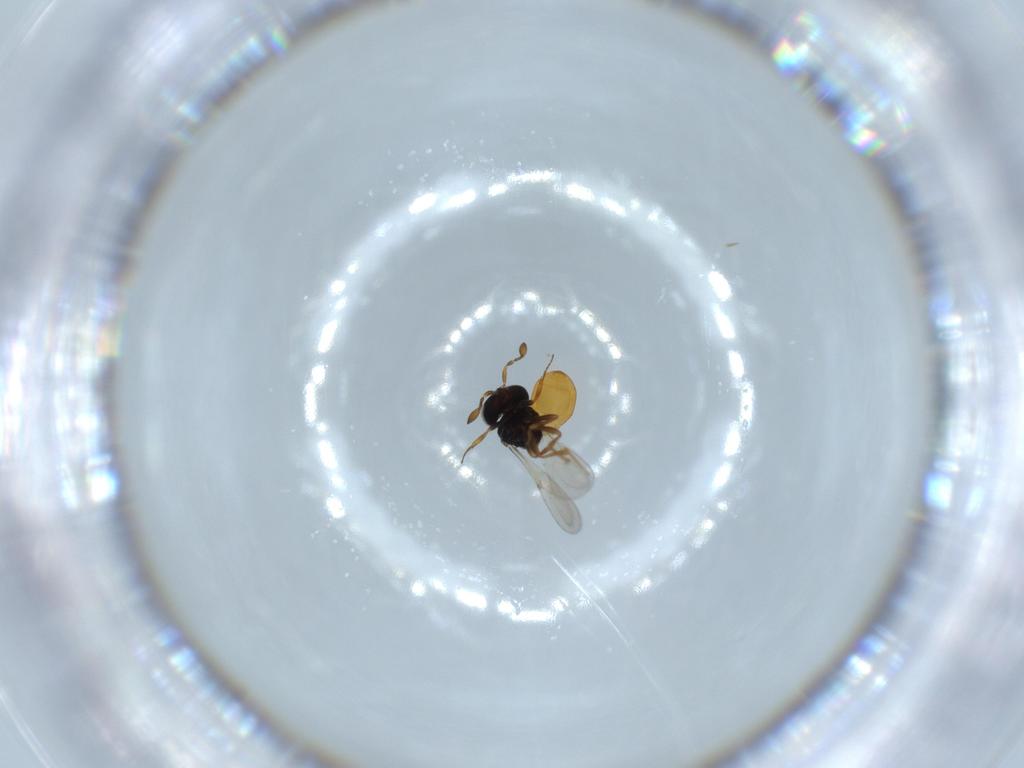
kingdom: Animalia
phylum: Arthropoda
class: Insecta
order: Hymenoptera
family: Scelionidae
